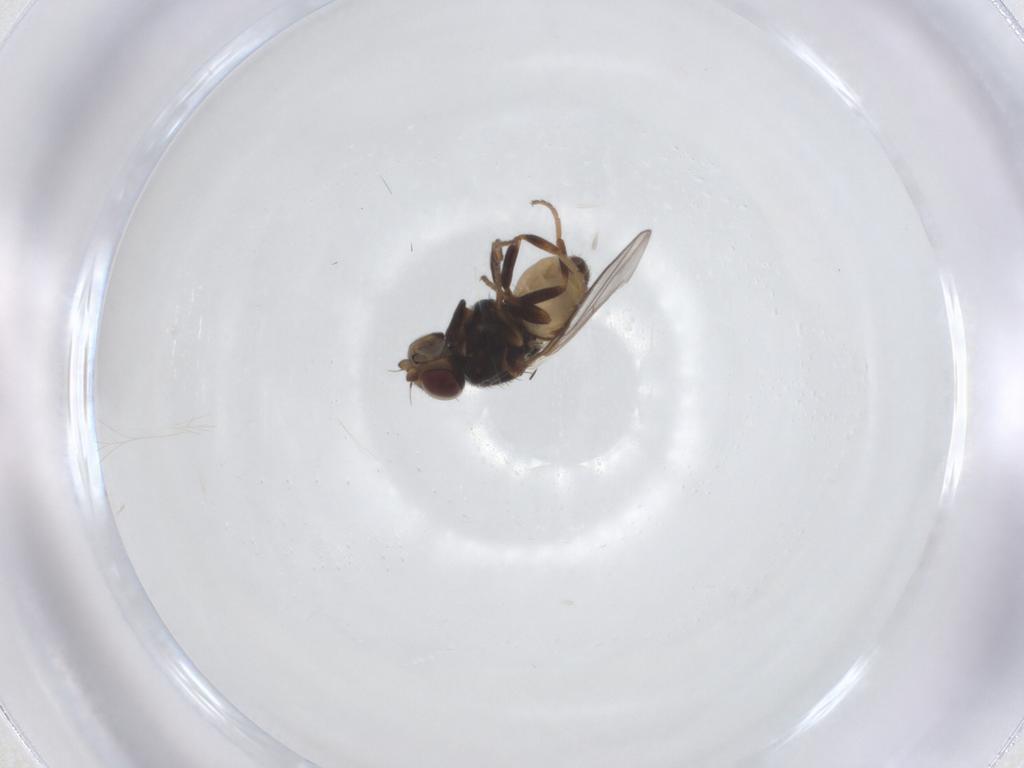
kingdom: Animalia
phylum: Arthropoda
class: Insecta
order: Diptera
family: Chloropidae
